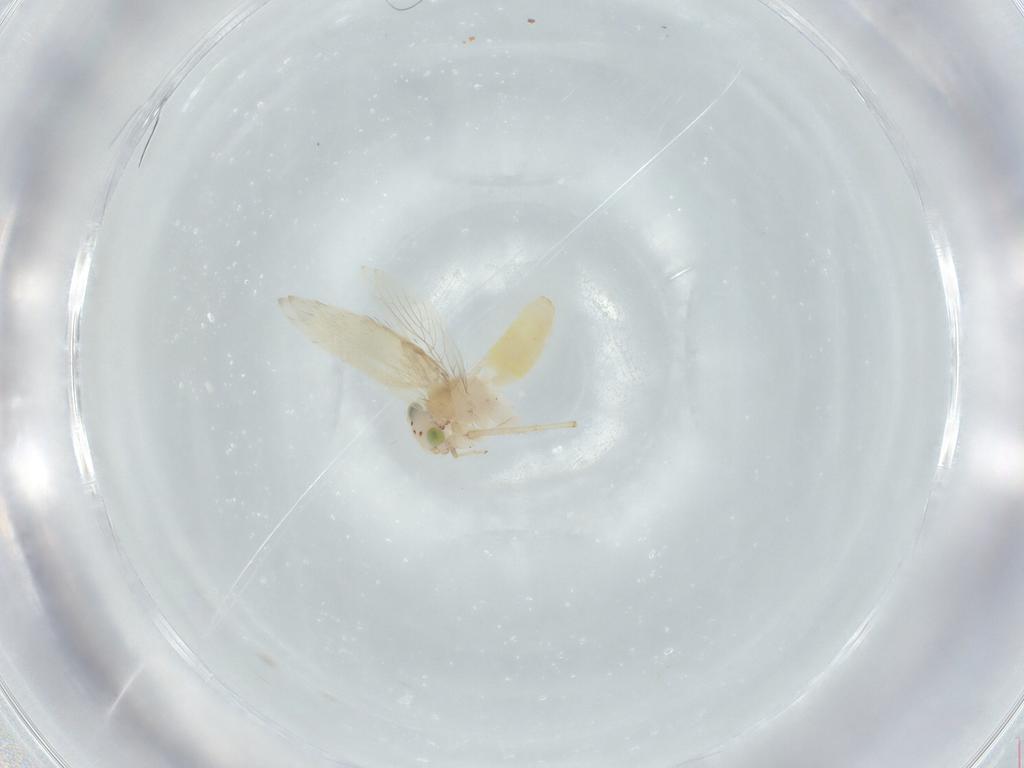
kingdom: Animalia
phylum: Arthropoda
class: Insecta
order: Psocodea
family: Lepidopsocidae
